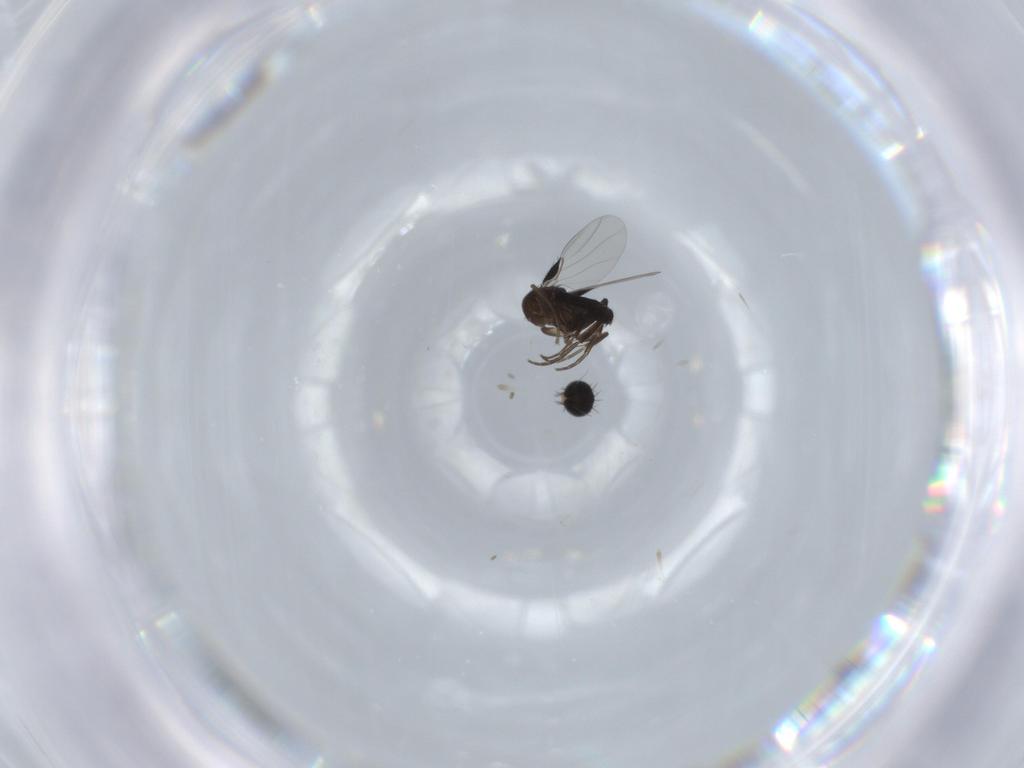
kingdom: Animalia
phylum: Arthropoda
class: Insecta
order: Diptera
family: Phoridae
